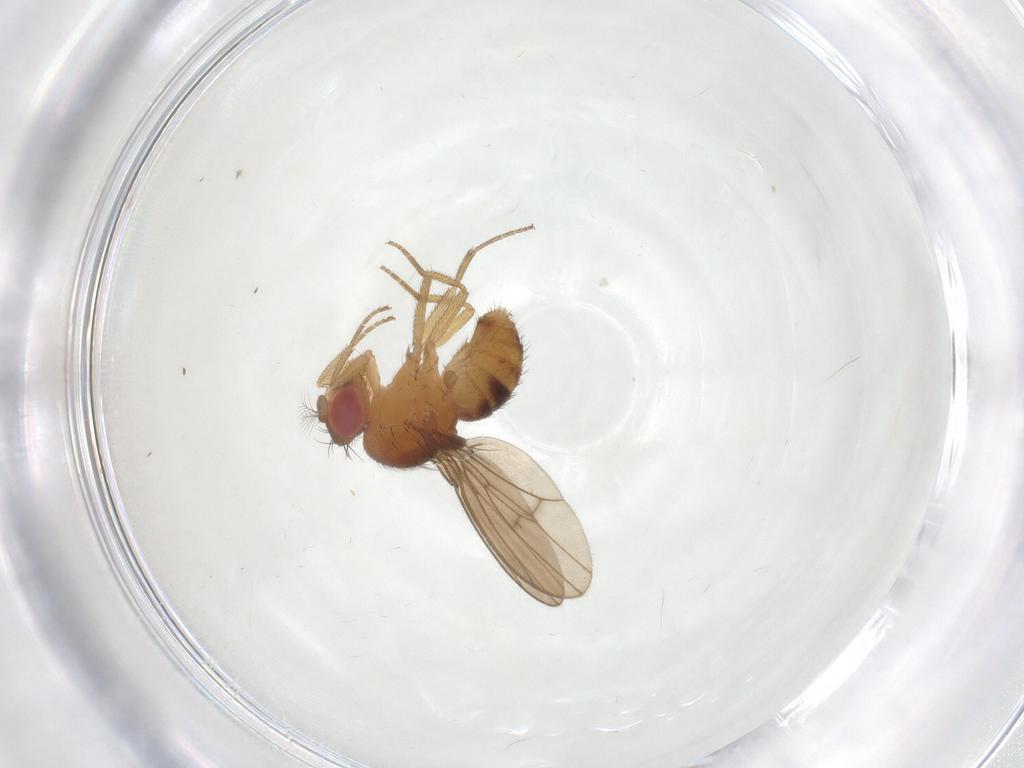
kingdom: Animalia
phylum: Arthropoda
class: Insecta
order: Diptera
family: Drosophilidae
